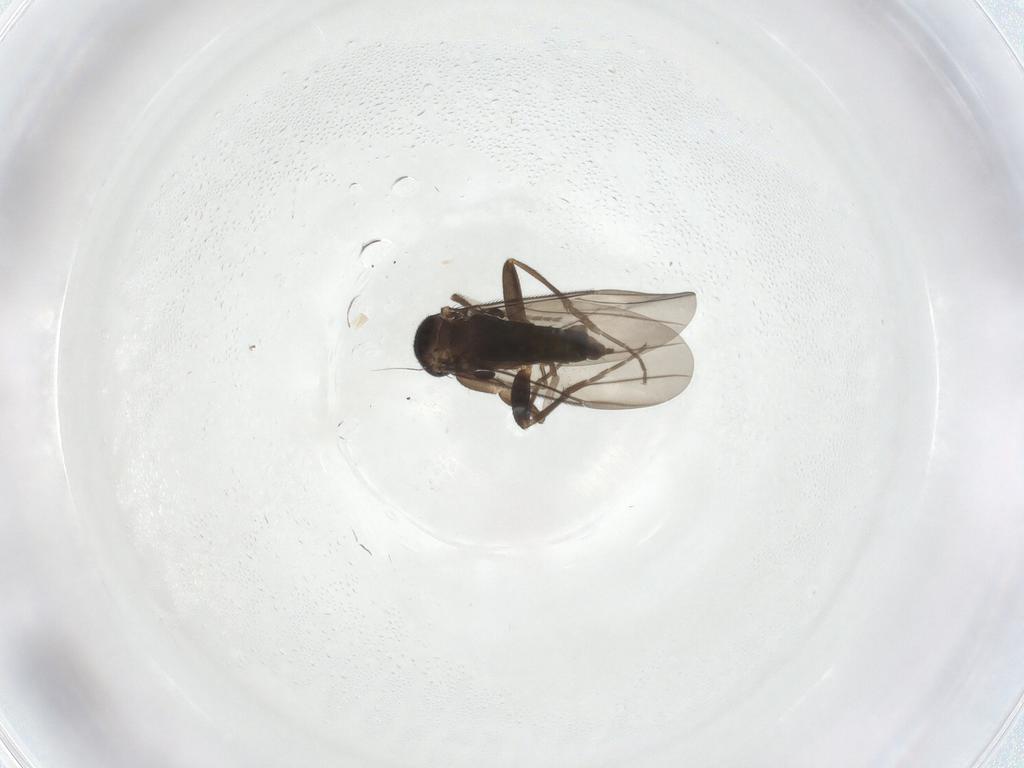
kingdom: Animalia
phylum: Arthropoda
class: Insecta
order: Diptera
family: Phoridae
